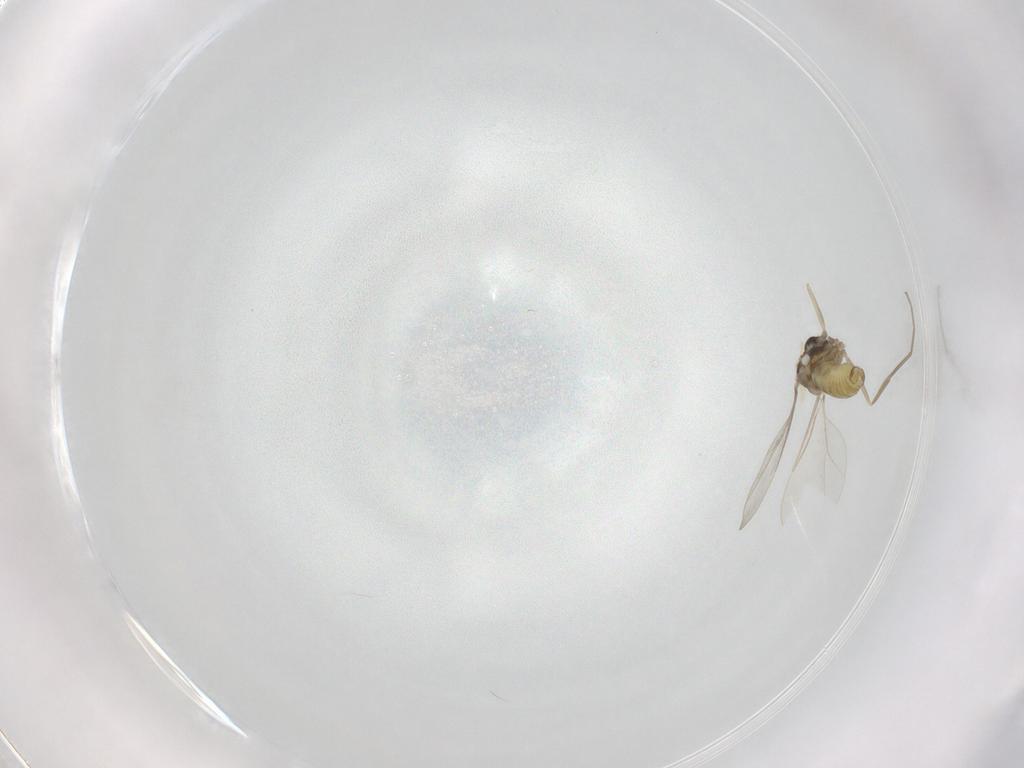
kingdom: Animalia
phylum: Arthropoda
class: Insecta
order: Diptera
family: Cecidomyiidae
